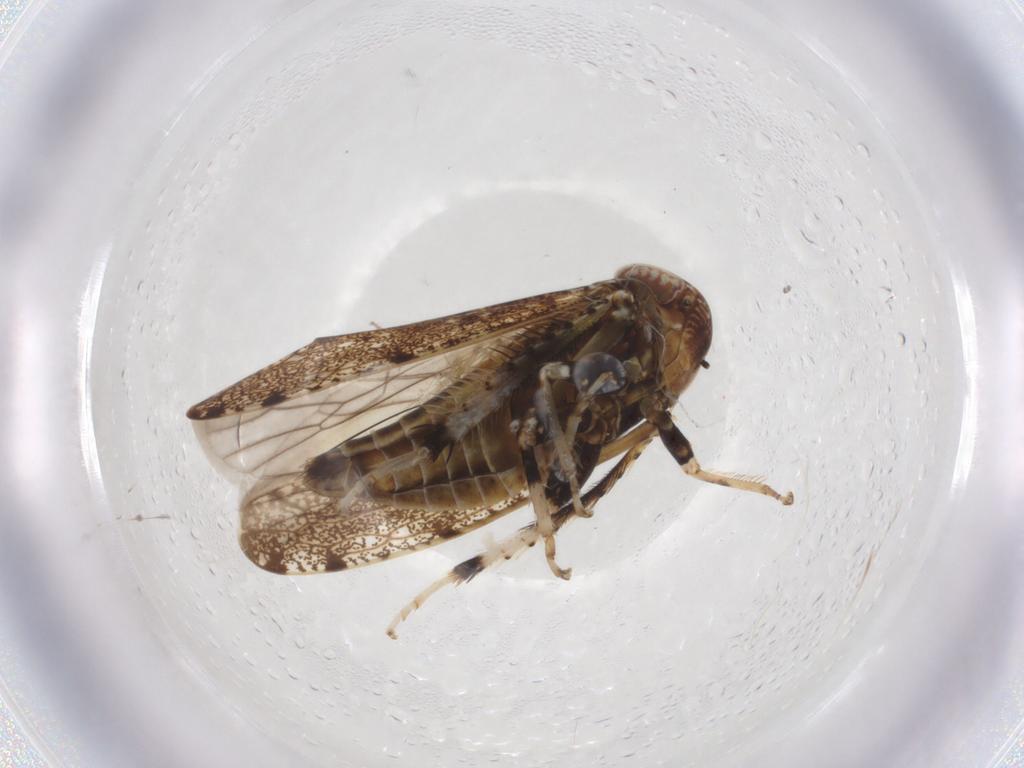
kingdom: Animalia
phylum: Arthropoda
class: Insecta
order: Hemiptera
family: Cicadellidae
